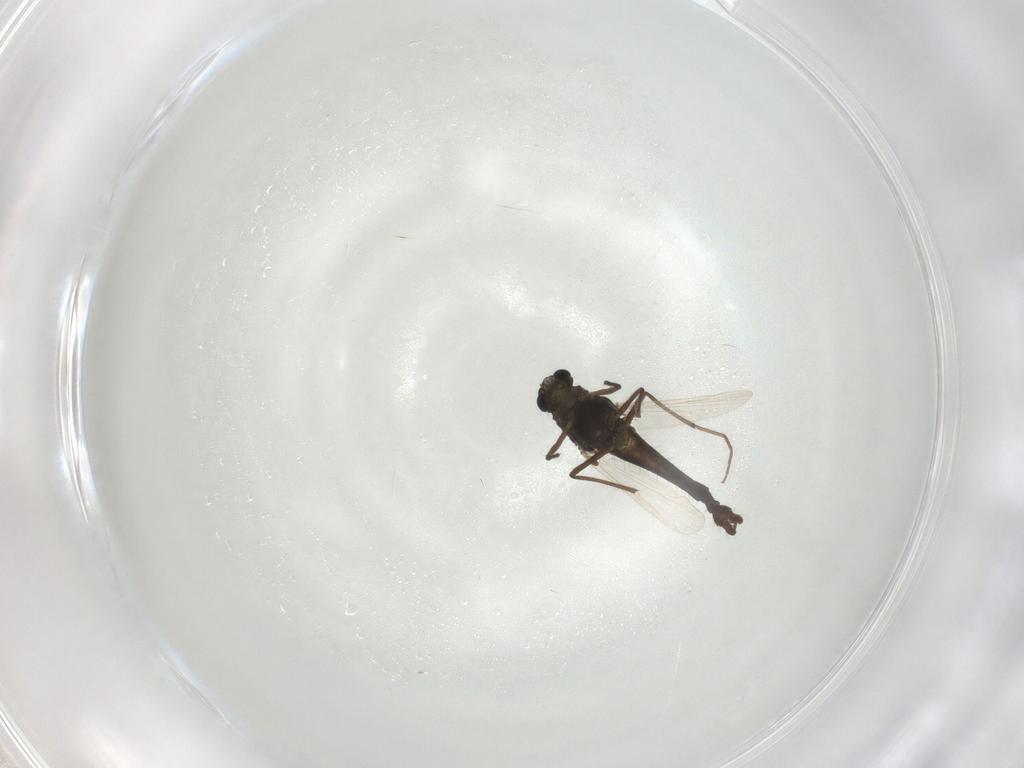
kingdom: Animalia
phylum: Arthropoda
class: Insecta
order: Diptera
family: Chironomidae
